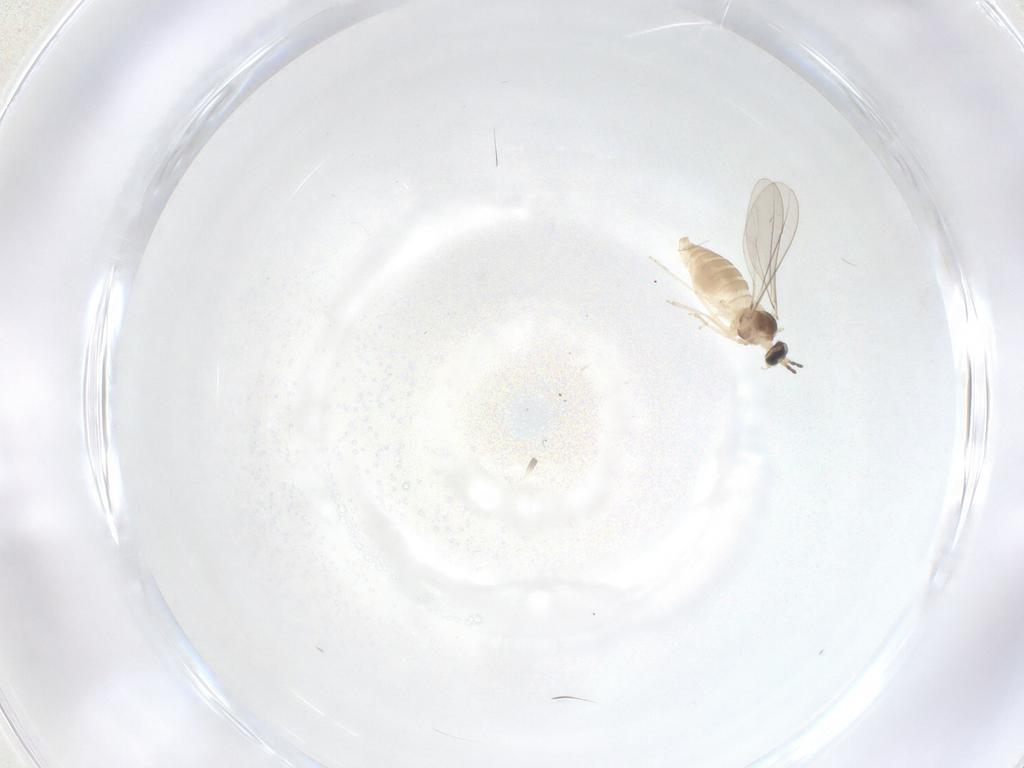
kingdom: Animalia
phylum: Arthropoda
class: Insecta
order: Diptera
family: Cecidomyiidae
